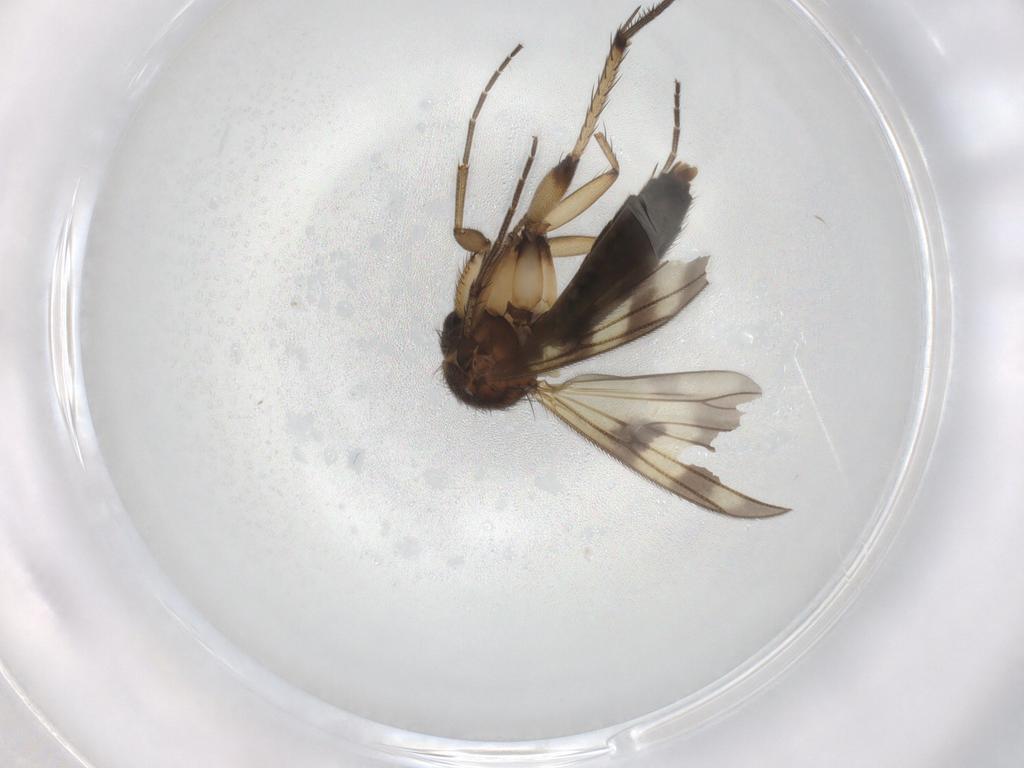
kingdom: Animalia
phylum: Arthropoda
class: Insecta
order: Diptera
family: Mycetophilidae
